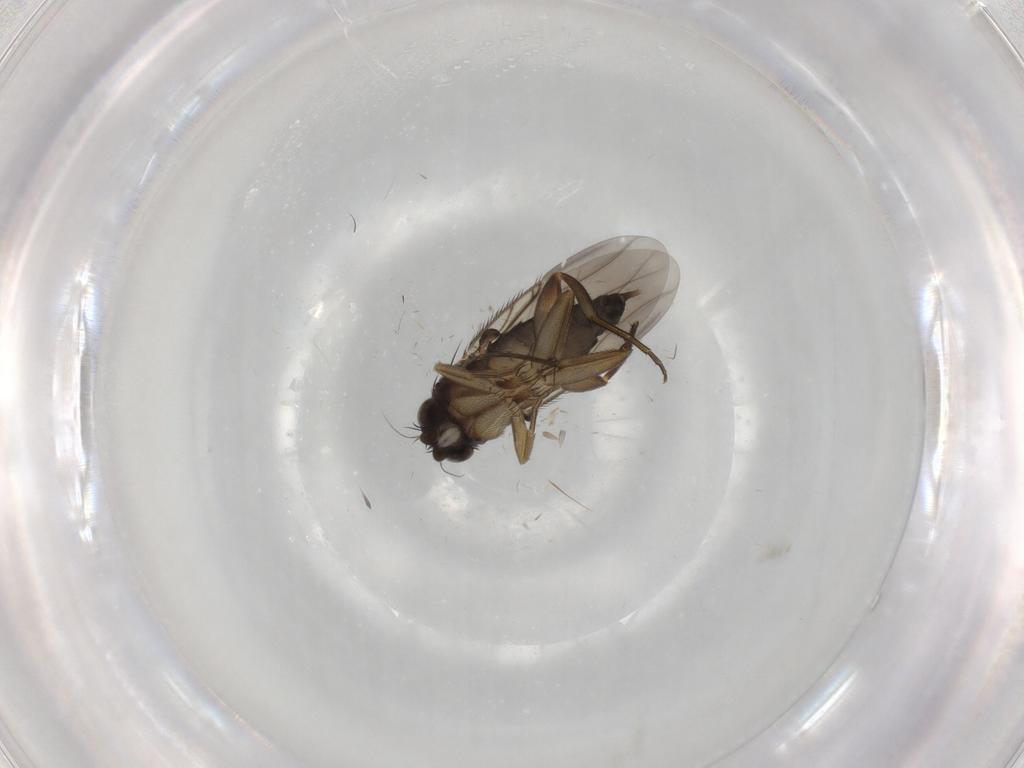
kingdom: Animalia
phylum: Arthropoda
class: Insecta
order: Diptera
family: Phoridae
